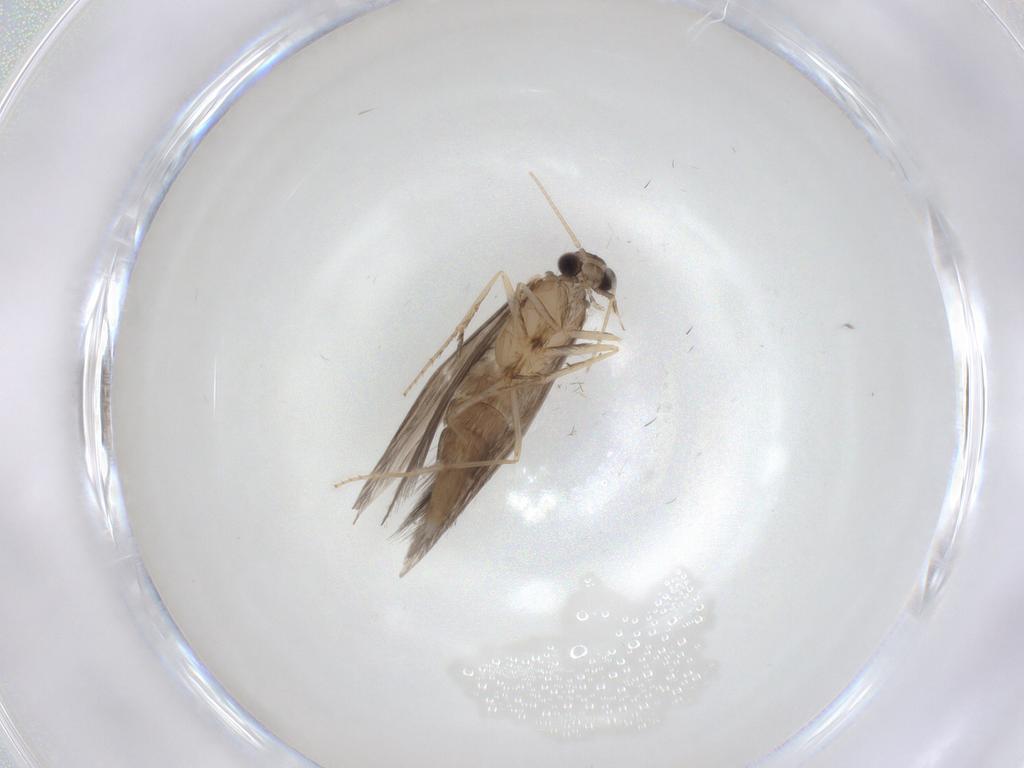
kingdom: Animalia
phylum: Arthropoda
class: Insecta
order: Trichoptera
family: Hydroptilidae
